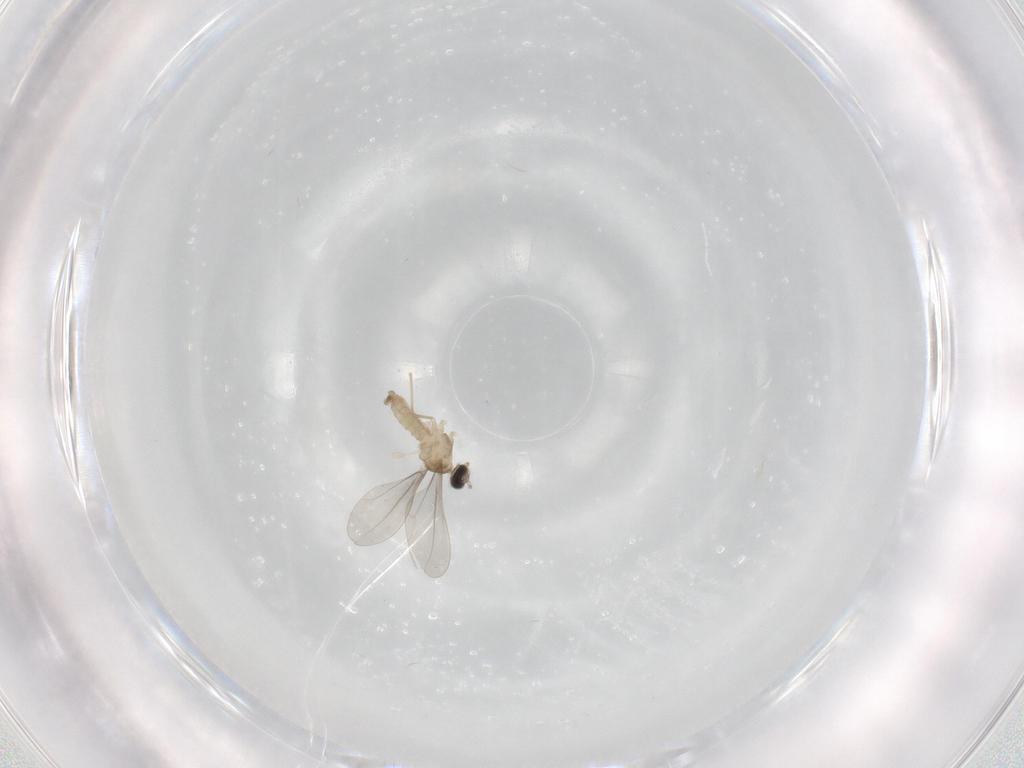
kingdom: Animalia
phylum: Arthropoda
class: Insecta
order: Diptera
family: Cecidomyiidae
